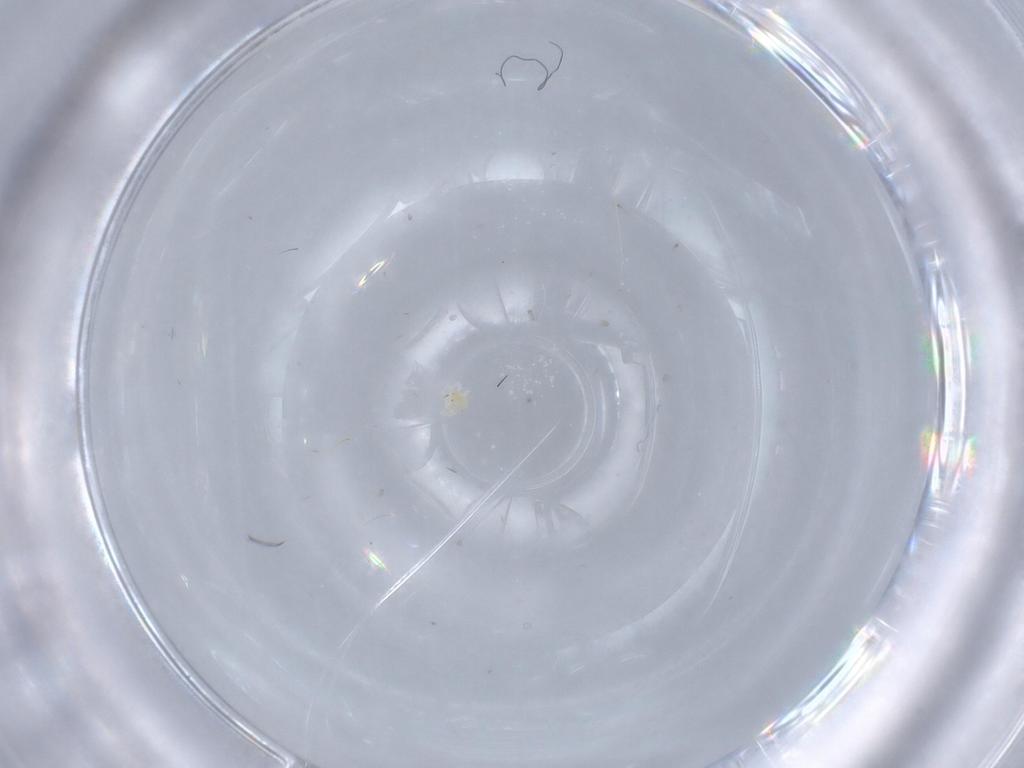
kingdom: Animalia
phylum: Arthropoda
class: Arachnida
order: Trombidiformes
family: Anystidae
